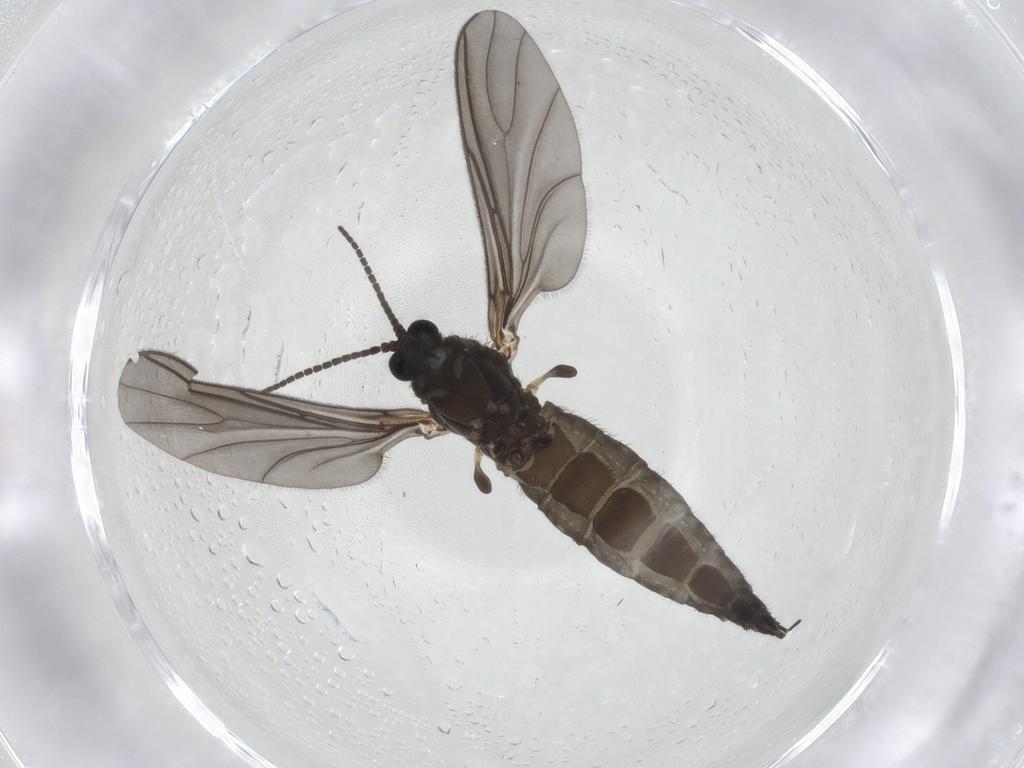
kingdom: Animalia
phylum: Arthropoda
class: Insecta
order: Diptera
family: Sciaridae
